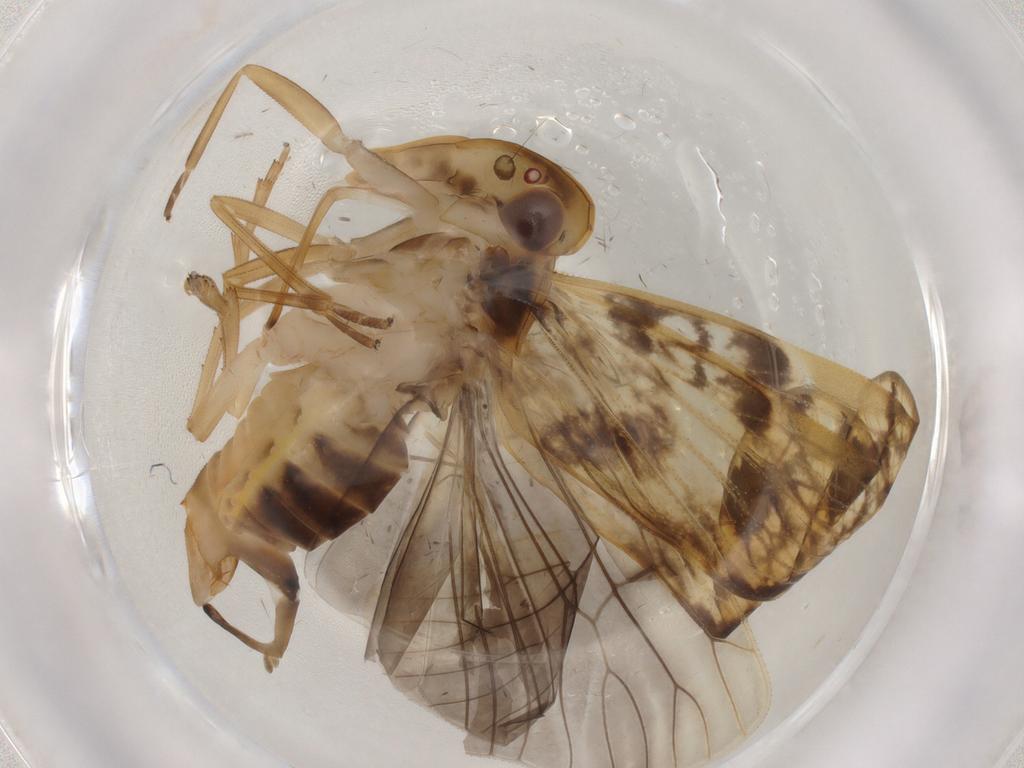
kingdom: Animalia
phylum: Arthropoda
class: Insecta
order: Hemiptera
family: Cixiidae
